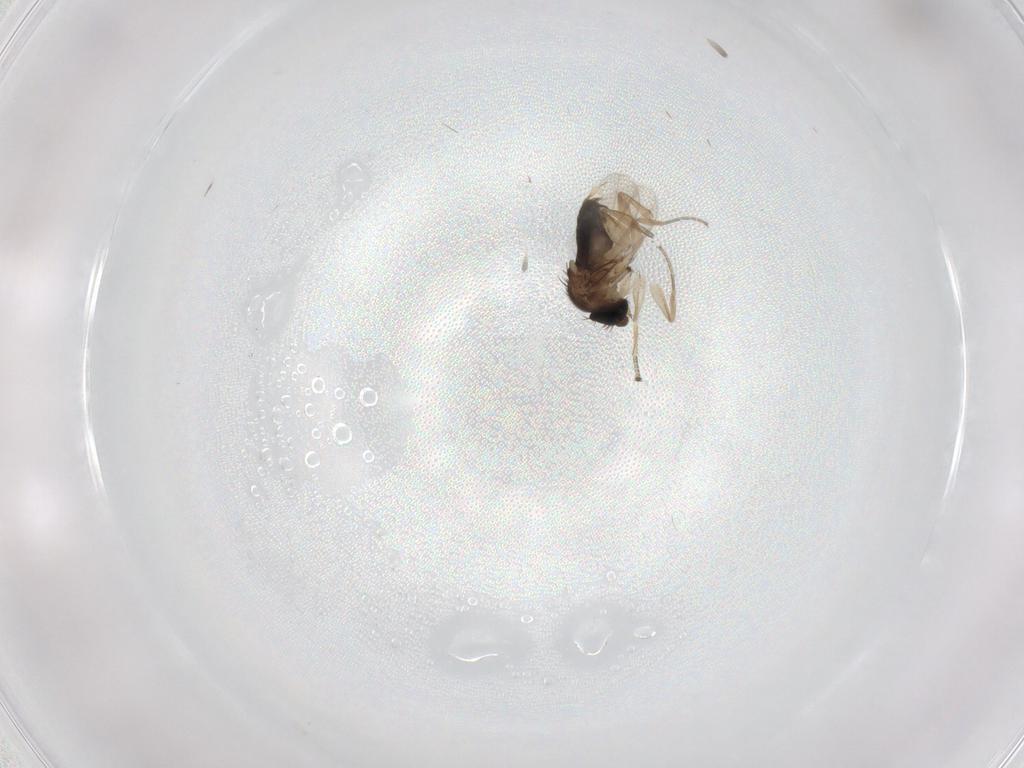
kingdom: Animalia
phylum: Arthropoda
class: Insecta
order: Diptera
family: Phoridae
